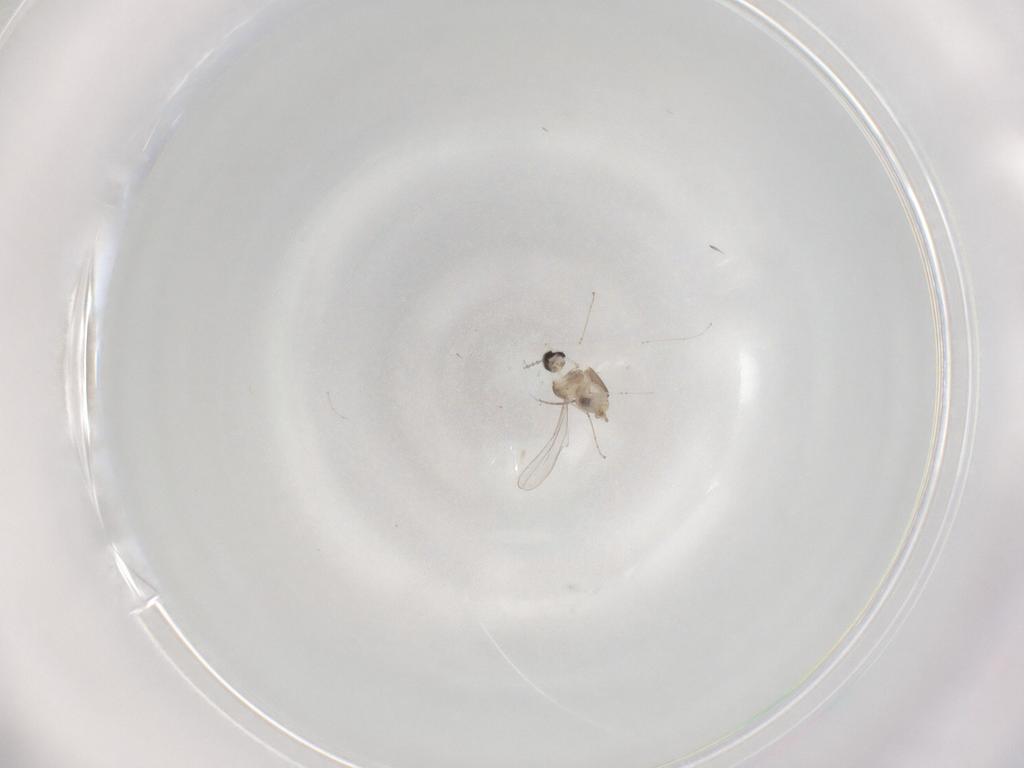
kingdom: Animalia
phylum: Arthropoda
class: Insecta
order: Diptera
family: Cecidomyiidae
